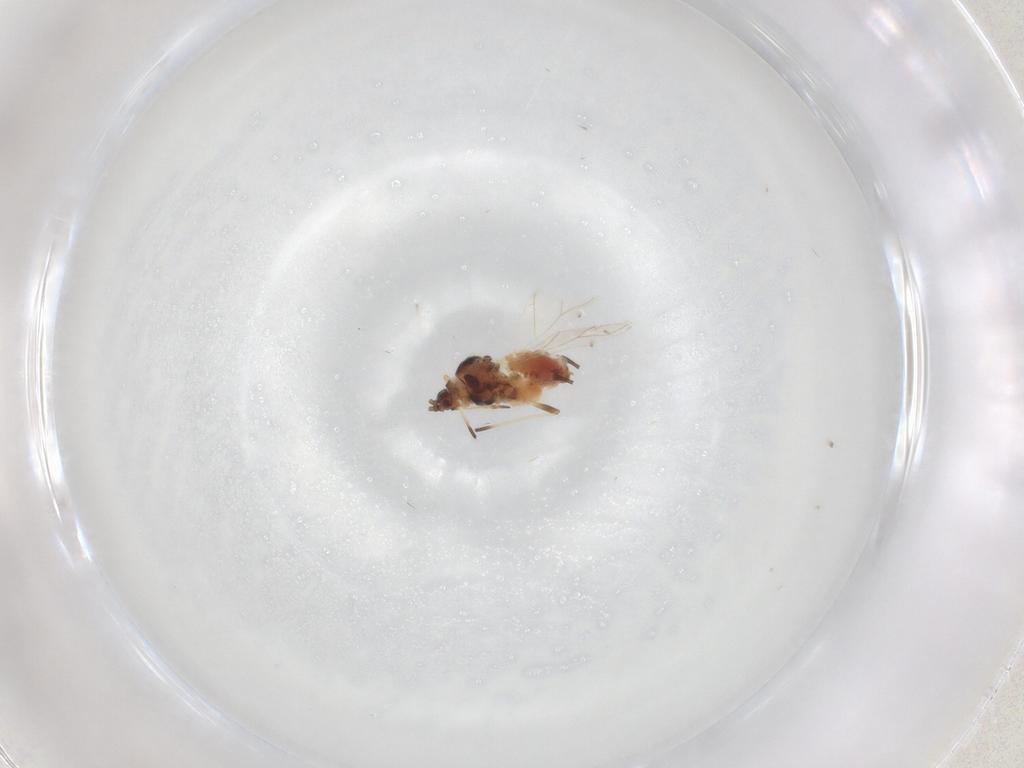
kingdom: Animalia
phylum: Arthropoda
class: Insecta
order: Hemiptera
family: Aphididae
